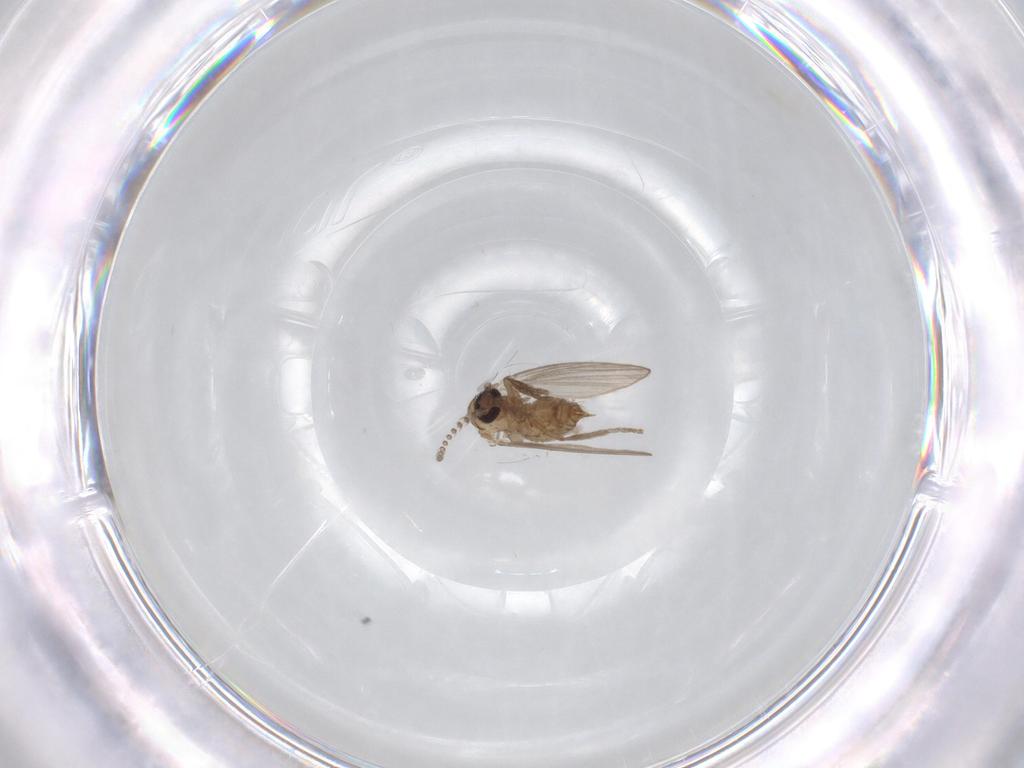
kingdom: Animalia
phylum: Arthropoda
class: Insecta
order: Diptera
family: Psychodidae
